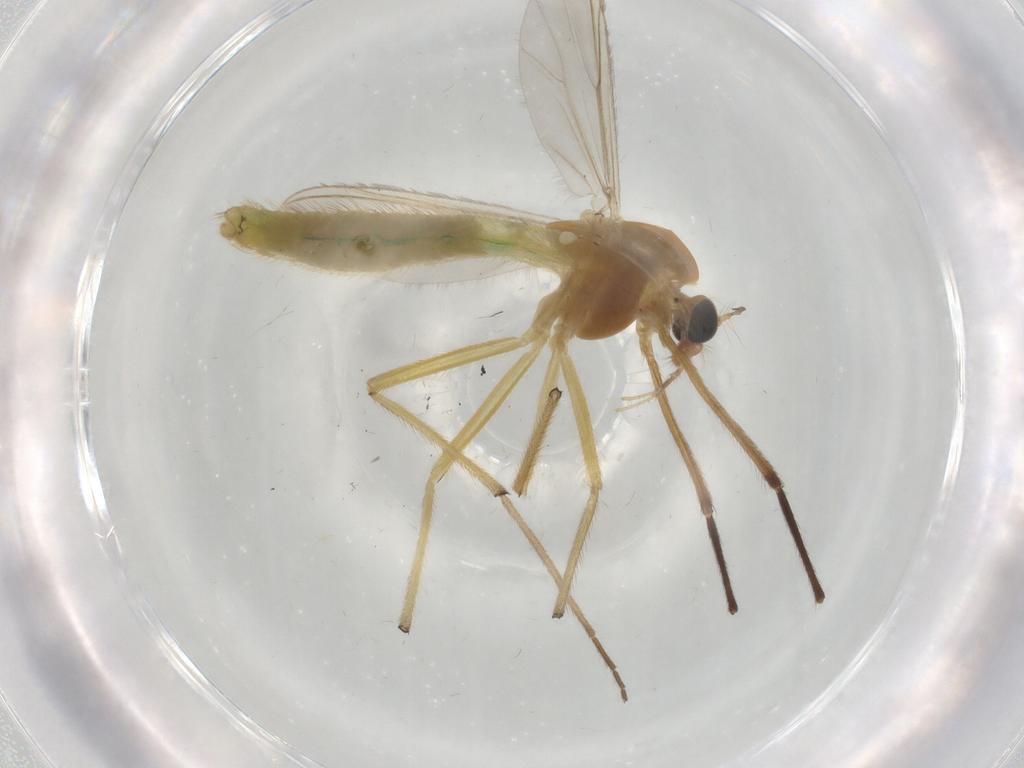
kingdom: Animalia
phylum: Arthropoda
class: Insecta
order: Diptera
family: Chironomidae
